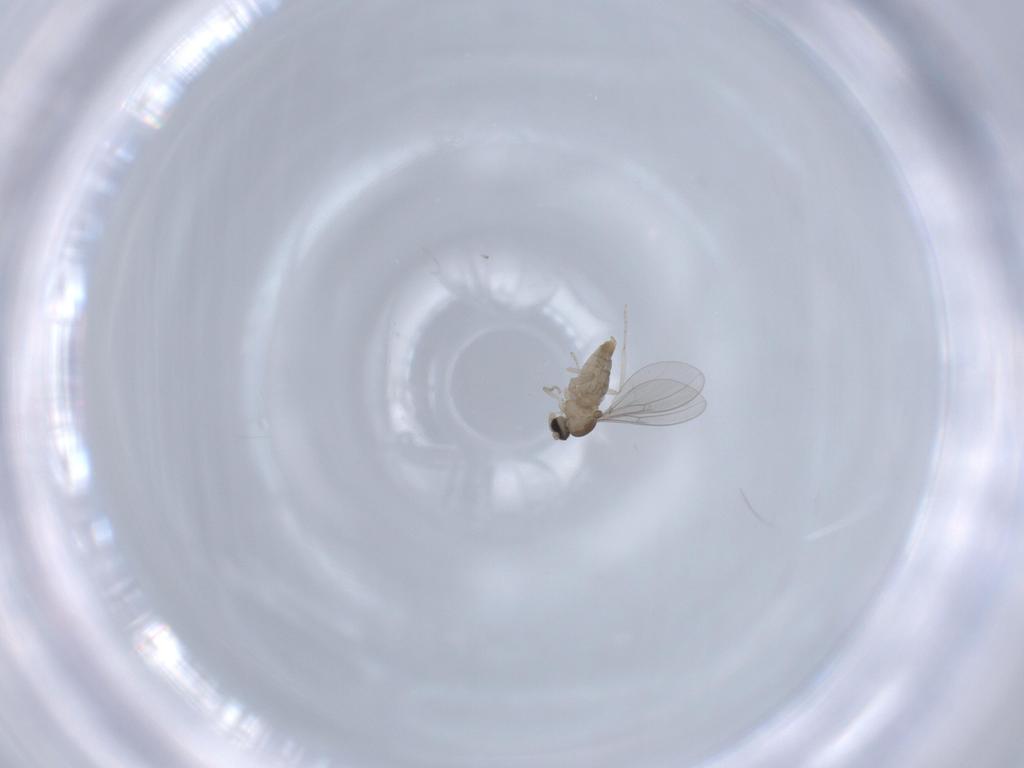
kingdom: Animalia
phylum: Arthropoda
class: Insecta
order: Diptera
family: Cecidomyiidae
